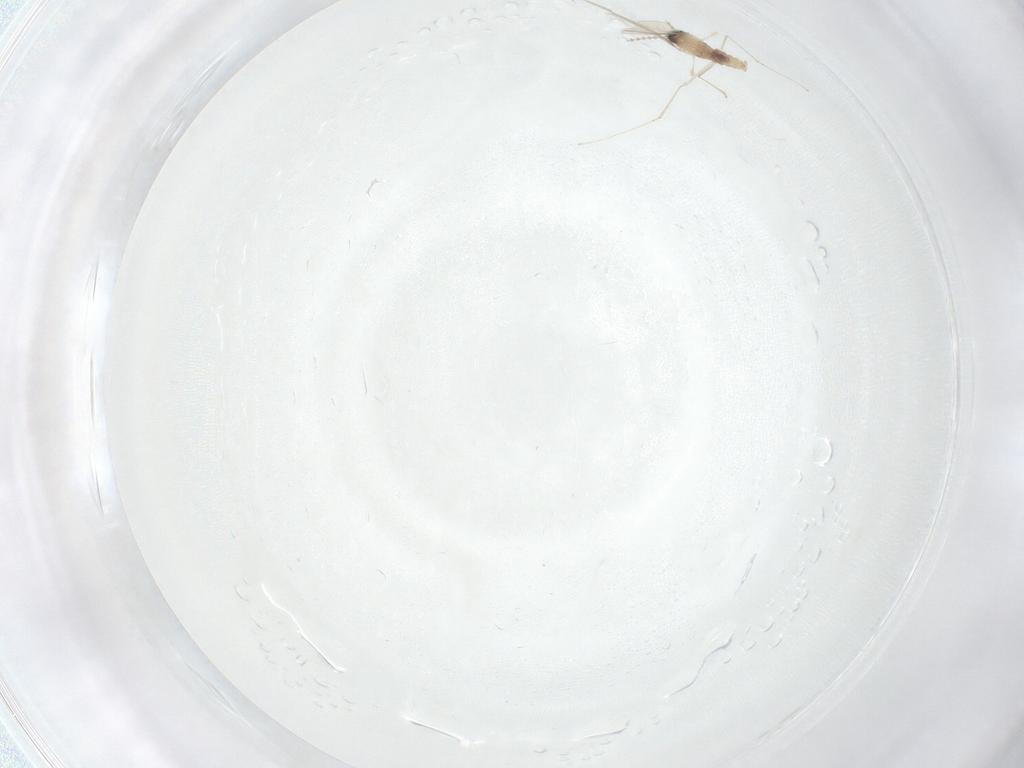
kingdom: Animalia
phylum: Arthropoda
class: Insecta
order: Diptera
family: Cecidomyiidae
